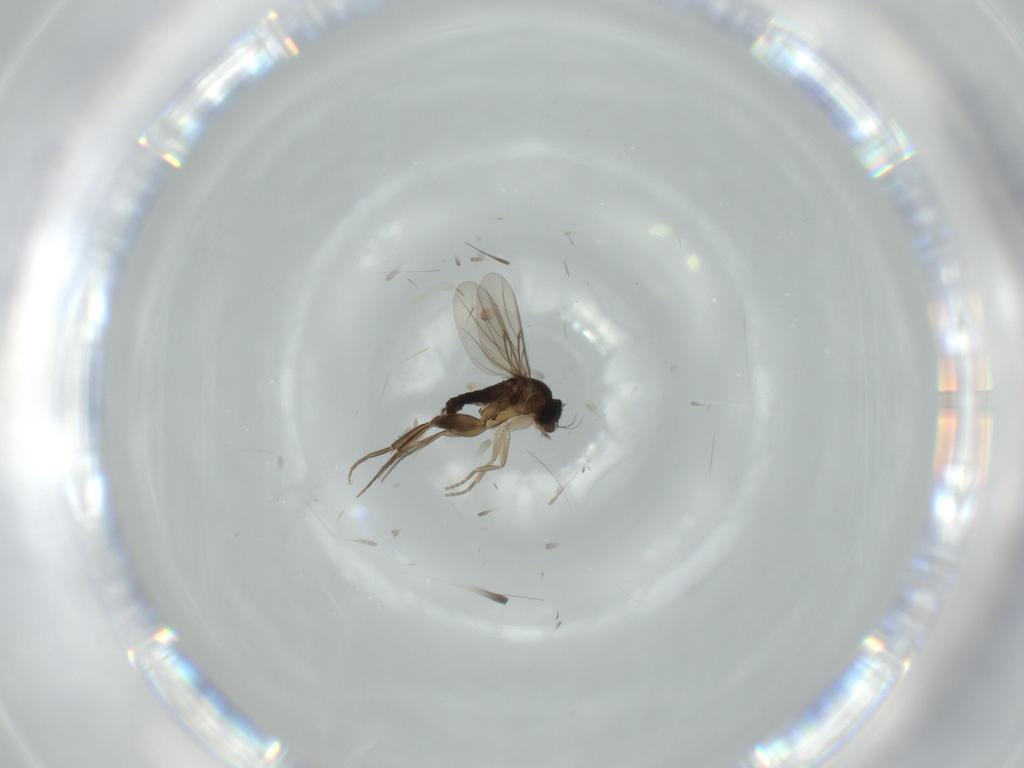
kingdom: Animalia
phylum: Arthropoda
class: Insecta
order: Diptera
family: Phoridae
